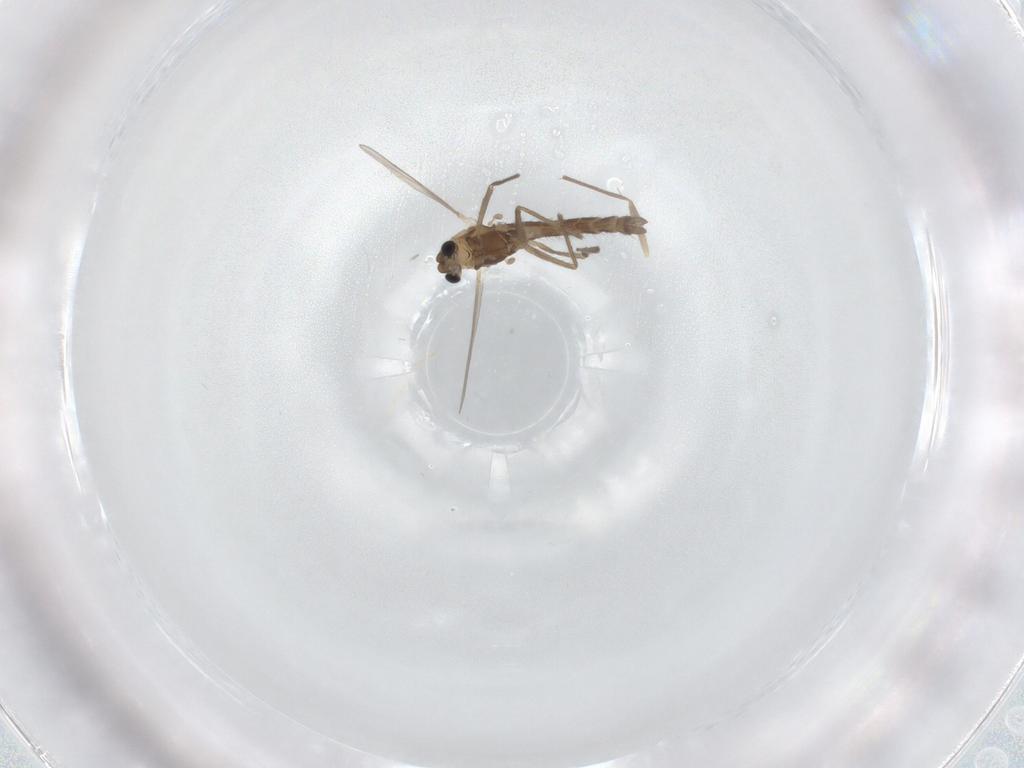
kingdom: Animalia
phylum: Arthropoda
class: Insecta
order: Diptera
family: Chironomidae
